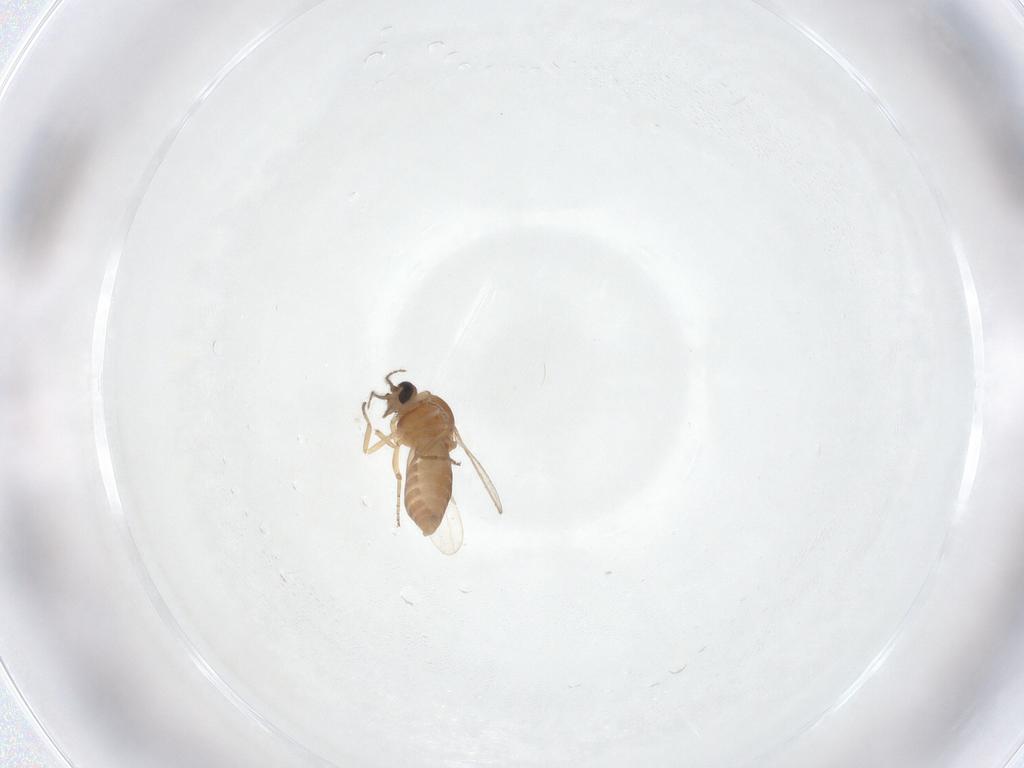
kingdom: Animalia
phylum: Arthropoda
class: Insecta
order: Diptera
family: Ceratopogonidae
